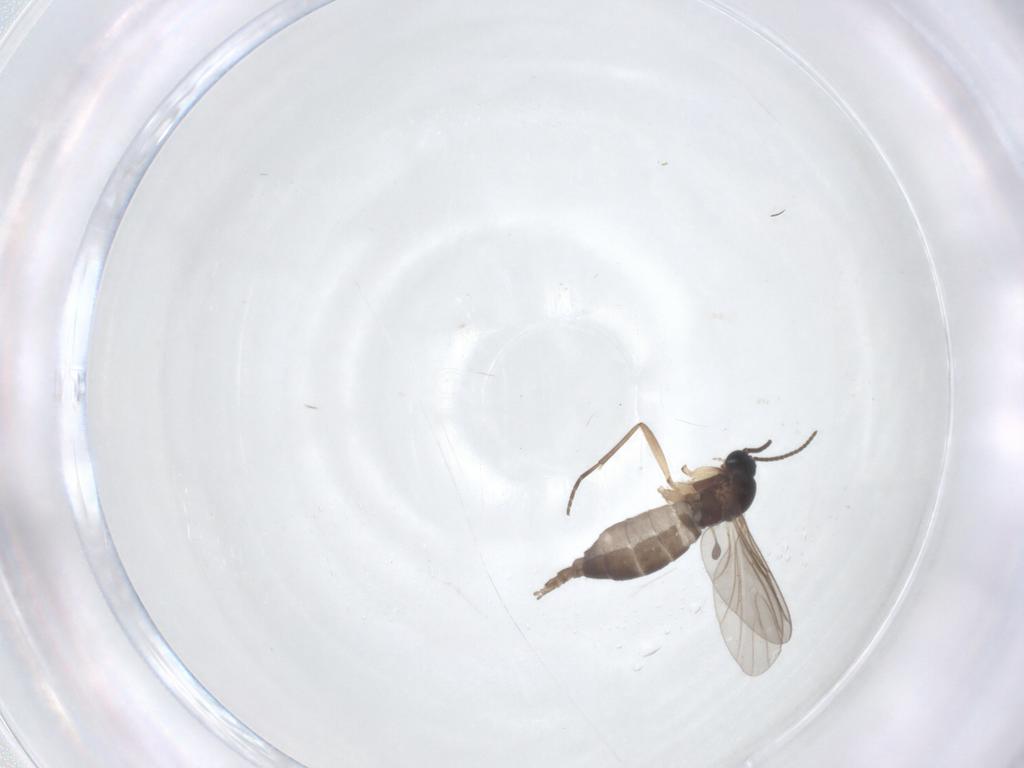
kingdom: Animalia
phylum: Arthropoda
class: Insecta
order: Diptera
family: Sciaridae
